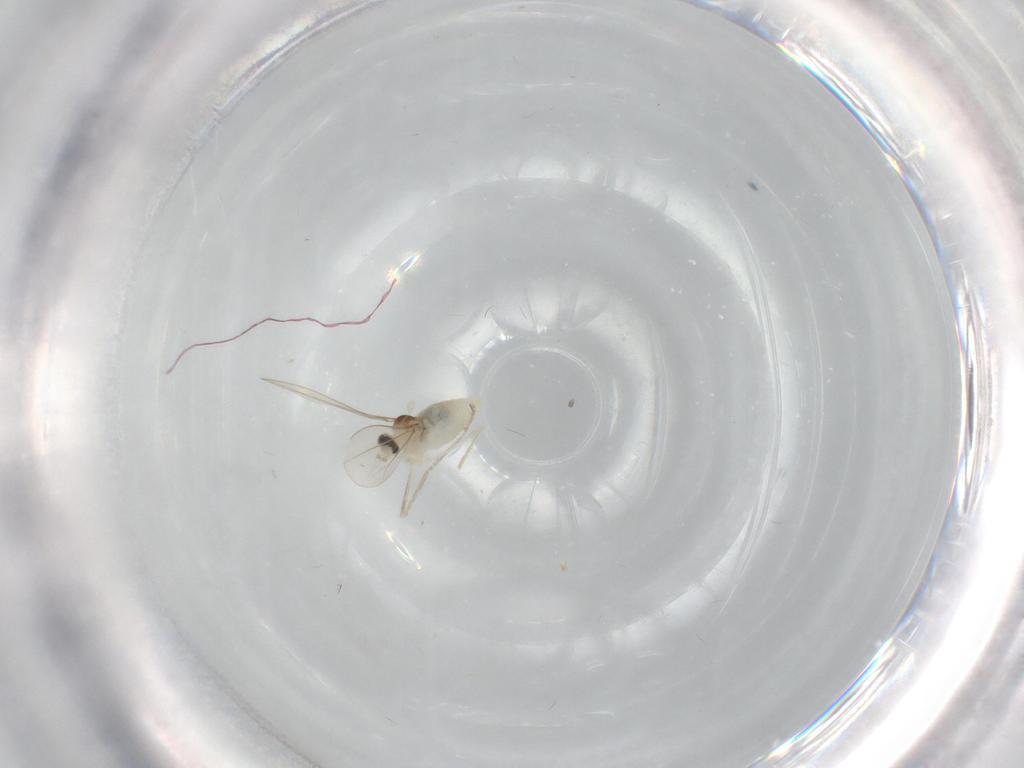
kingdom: Animalia
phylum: Arthropoda
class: Insecta
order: Diptera
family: Cecidomyiidae
